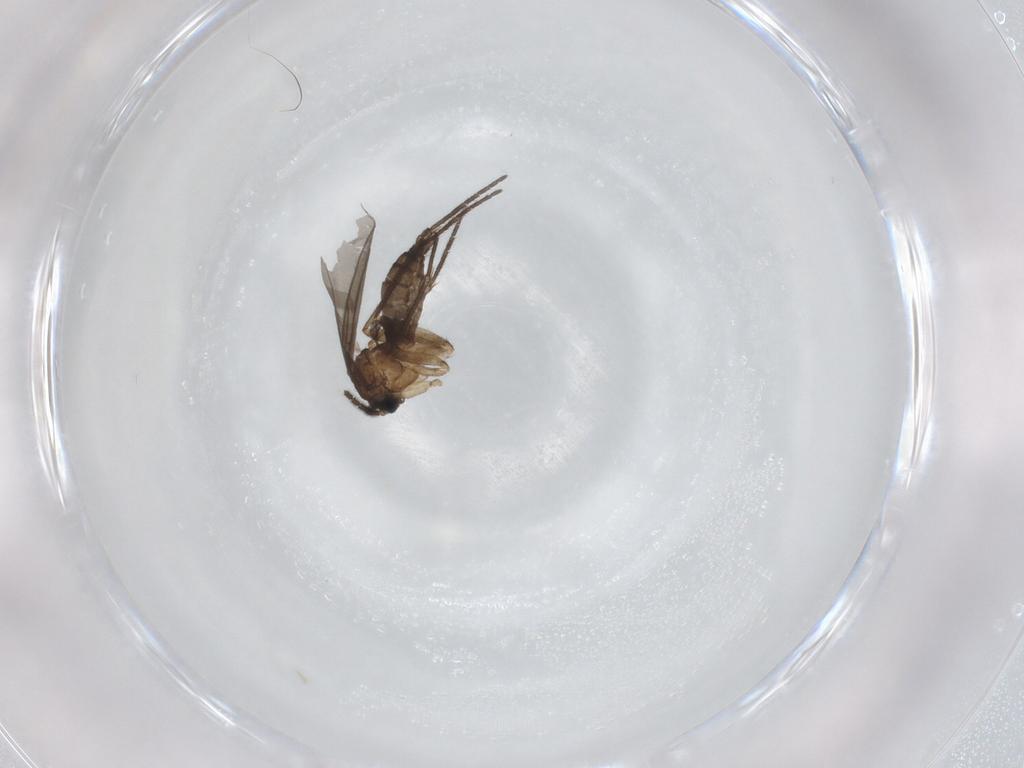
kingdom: Animalia
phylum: Arthropoda
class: Insecta
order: Diptera
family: Sciaridae
